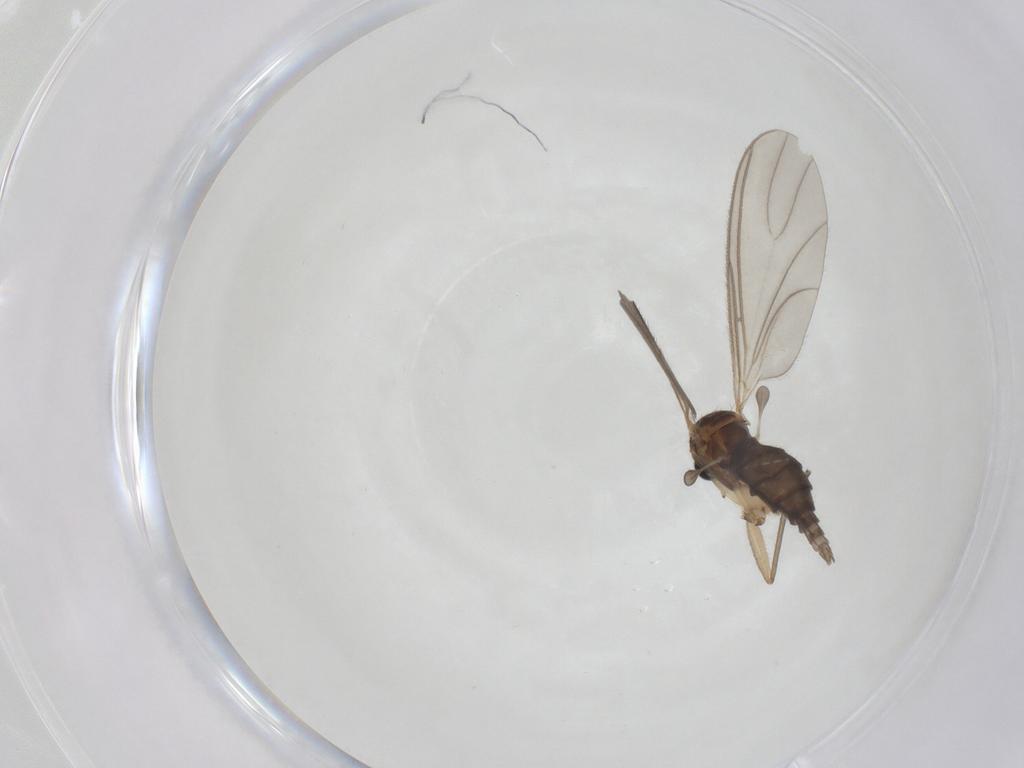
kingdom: Animalia
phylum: Arthropoda
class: Insecta
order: Diptera
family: Sciaridae
